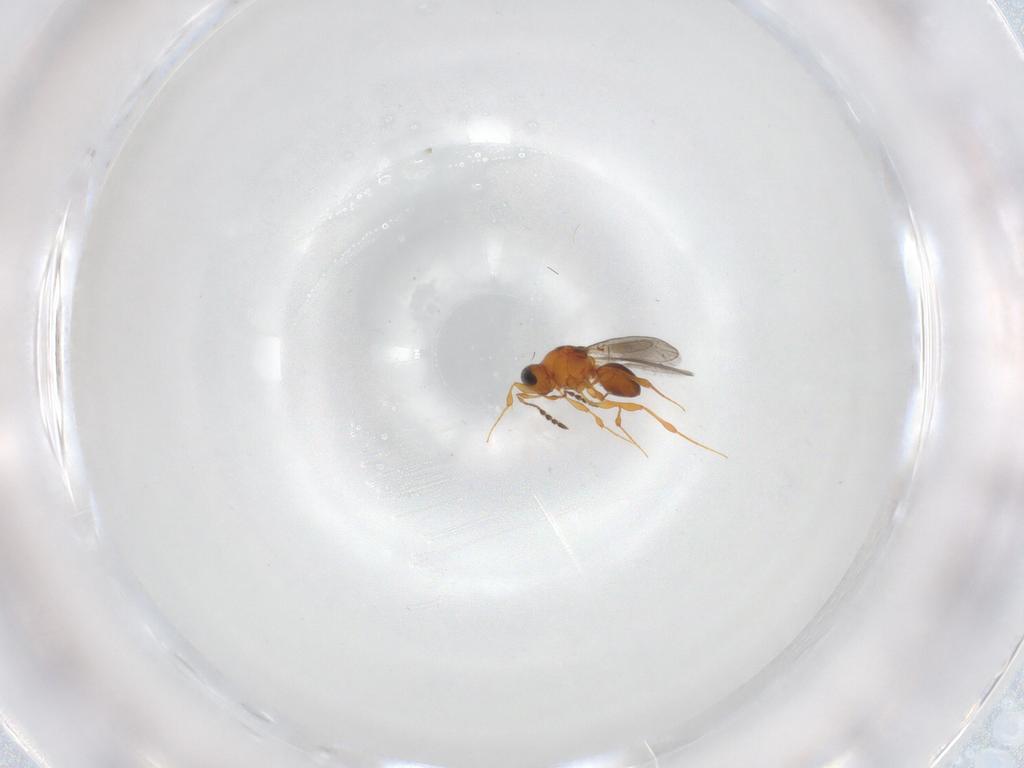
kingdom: Animalia
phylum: Arthropoda
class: Insecta
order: Hymenoptera
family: Platygastridae
